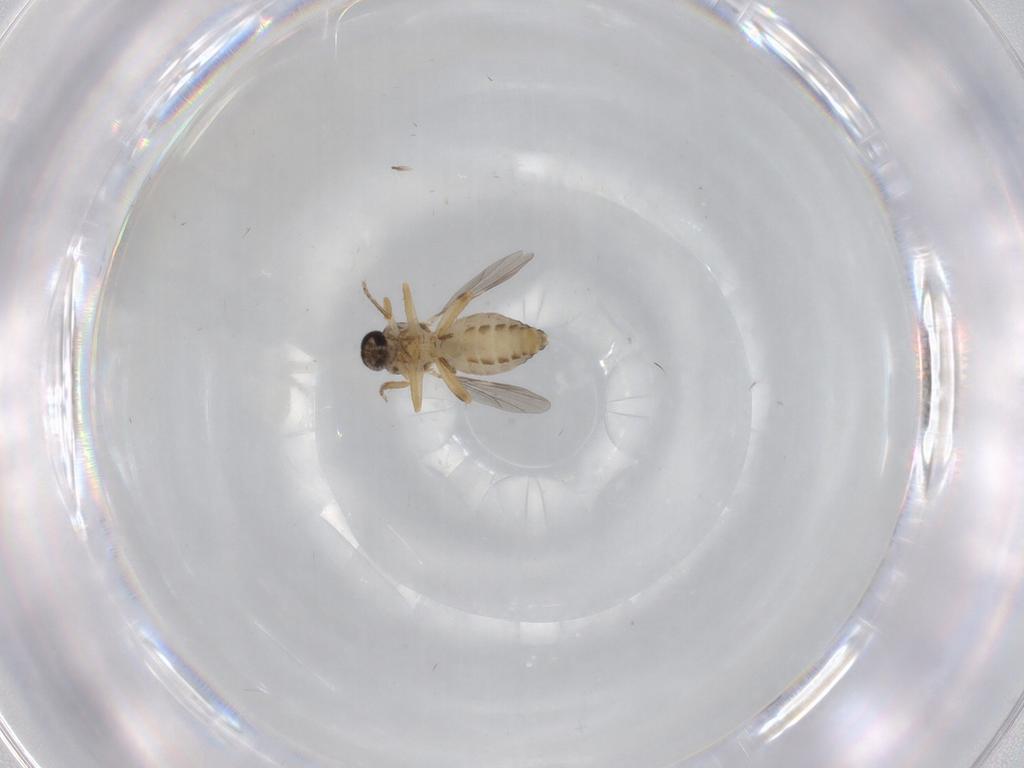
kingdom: Animalia
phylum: Arthropoda
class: Insecta
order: Diptera
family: Ceratopogonidae
